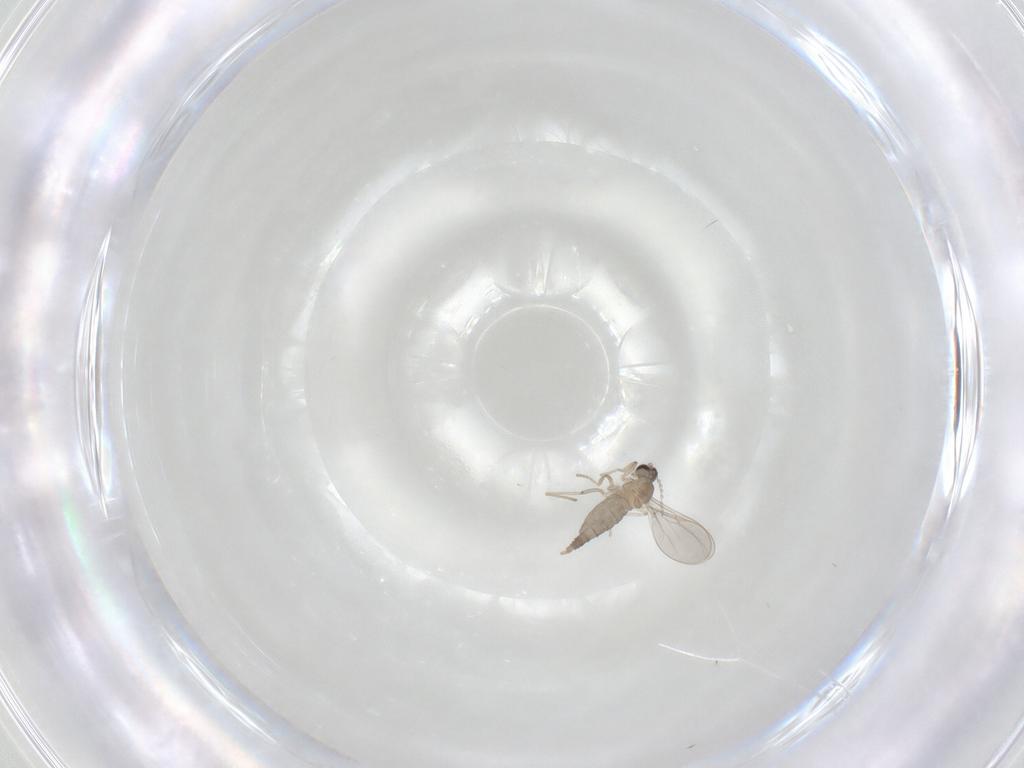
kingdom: Animalia
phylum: Arthropoda
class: Insecta
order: Diptera
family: Cecidomyiidae
